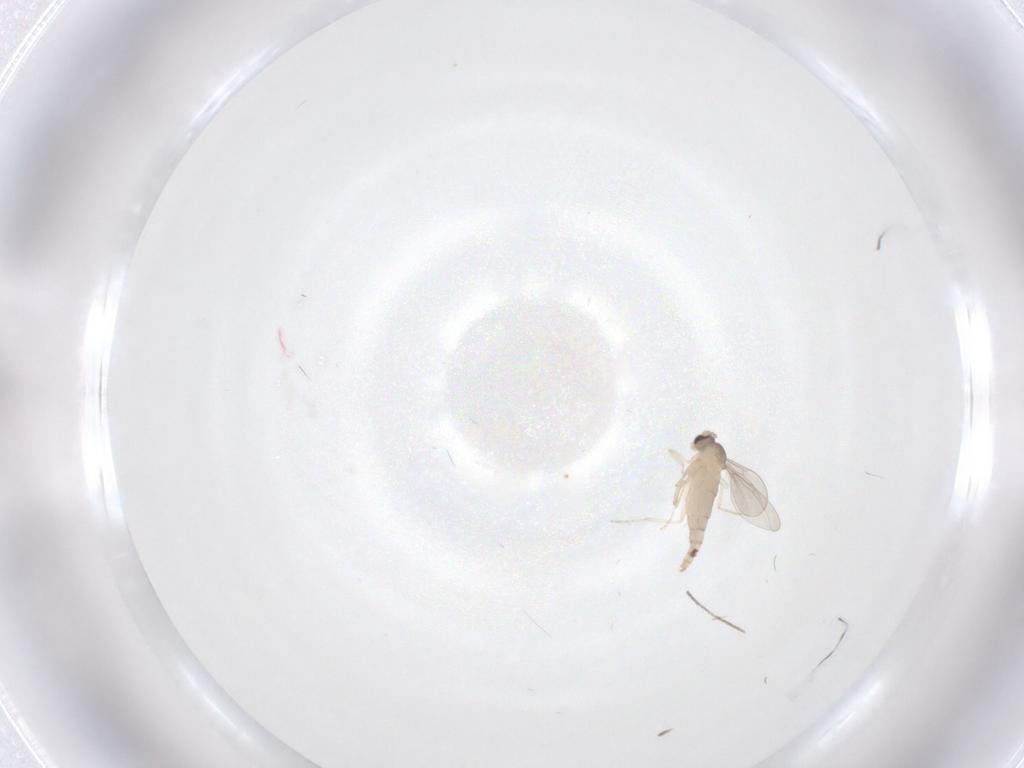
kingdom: Animalia
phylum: Arthropoda
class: Insecta
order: Diptera
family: Cecidomyiidae
